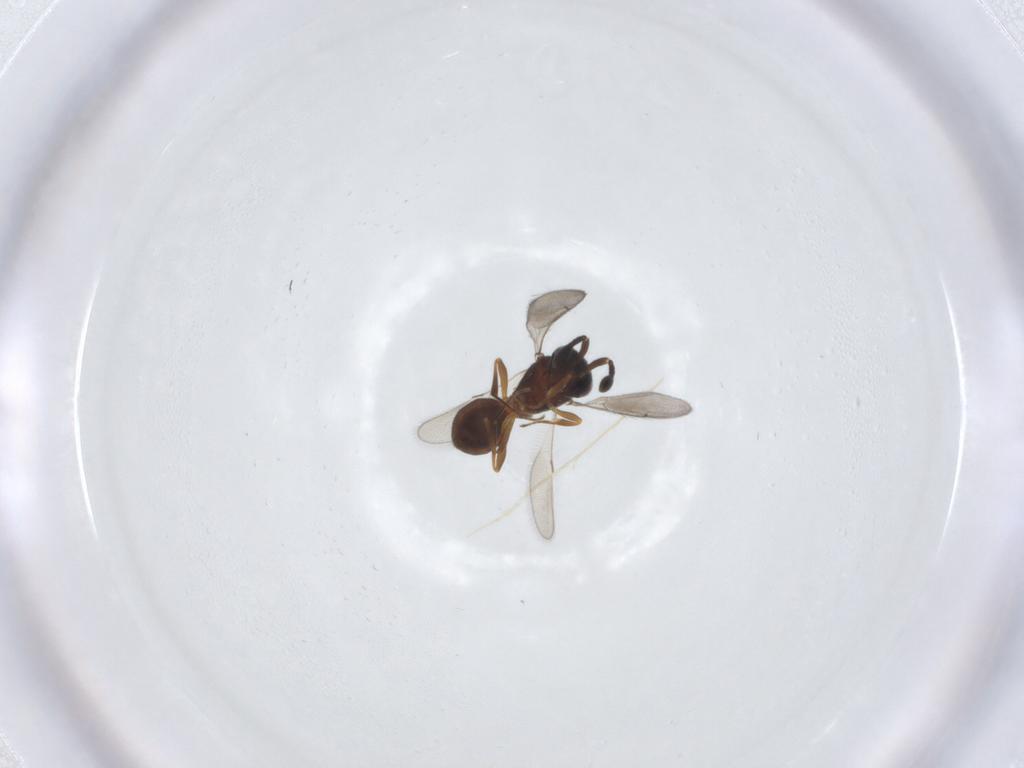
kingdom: Animalia
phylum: Arthropoda
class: Insecta
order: Hymenoptera
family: Scelionidae
